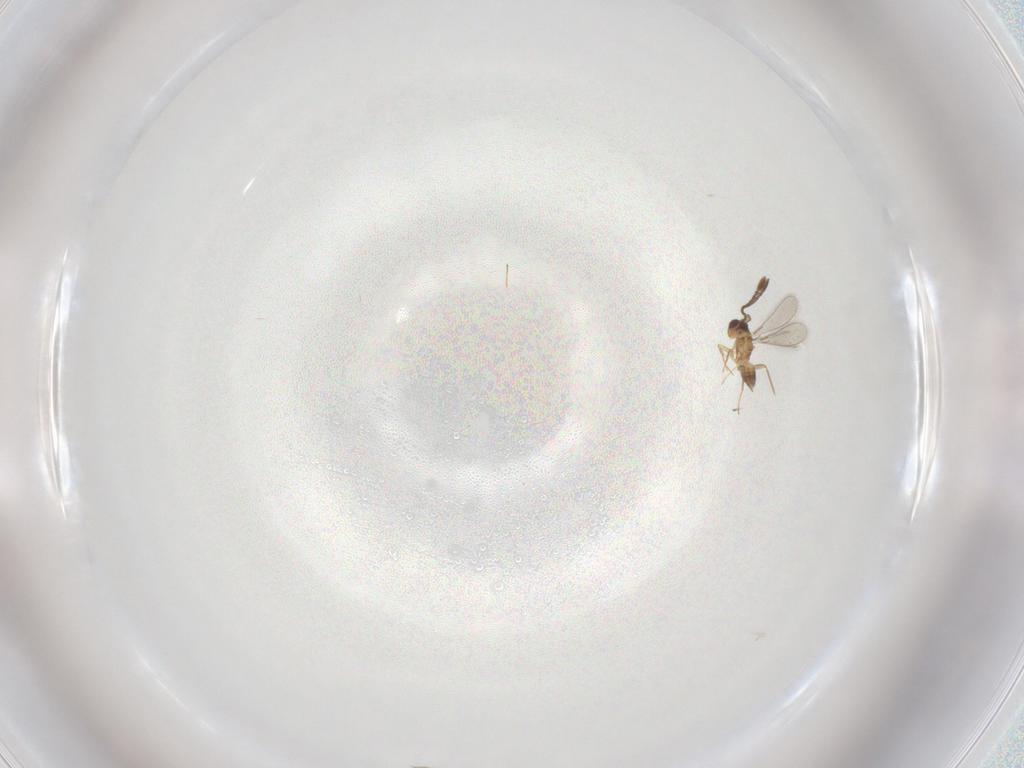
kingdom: Animalia
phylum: Arthropoda
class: Insecta
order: Hymenoptera
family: Mymaridae
